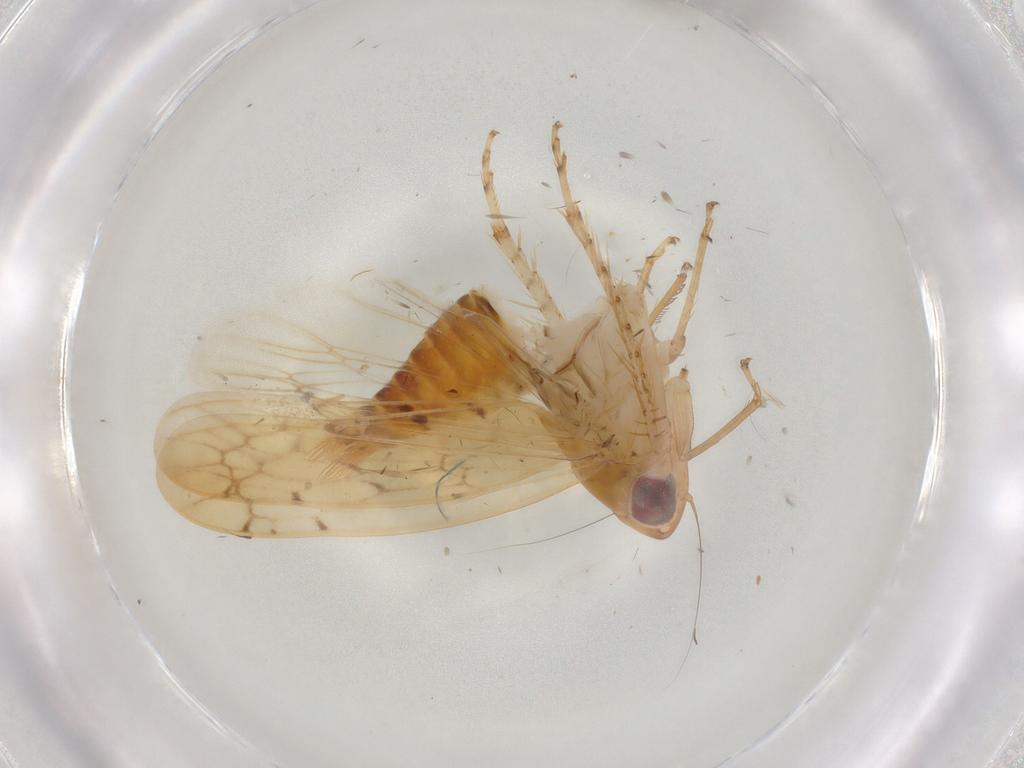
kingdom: Animalia
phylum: Arthropoda
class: Insecta
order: Hemiptera
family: Cicadellidae
